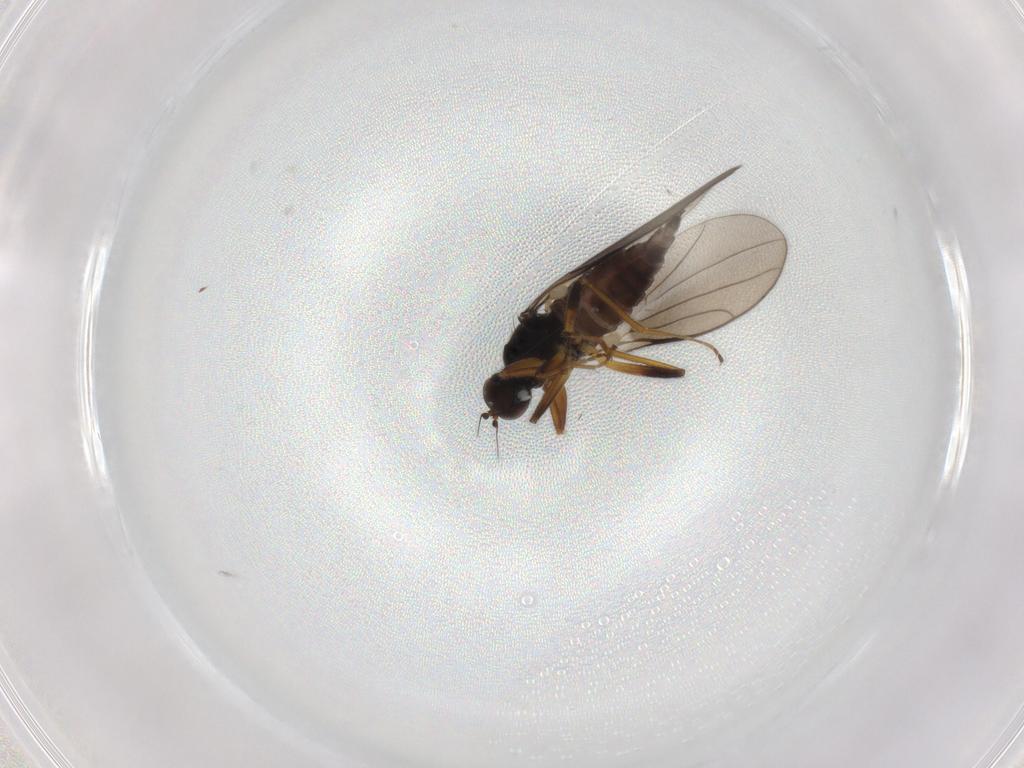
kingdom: Animalia
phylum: Arthropoda
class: Insecta
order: Diptera
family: Hybotidae
